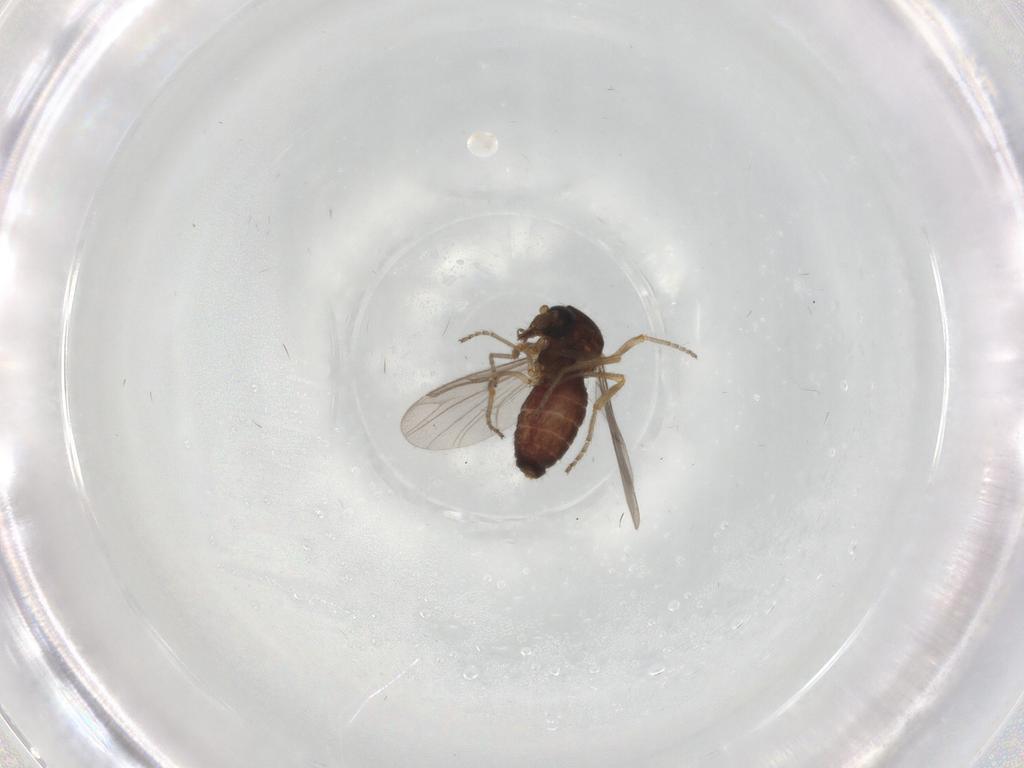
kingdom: Animalia
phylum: Arthropoda
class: Insecta
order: Diptera
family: Ceratopogonidae
